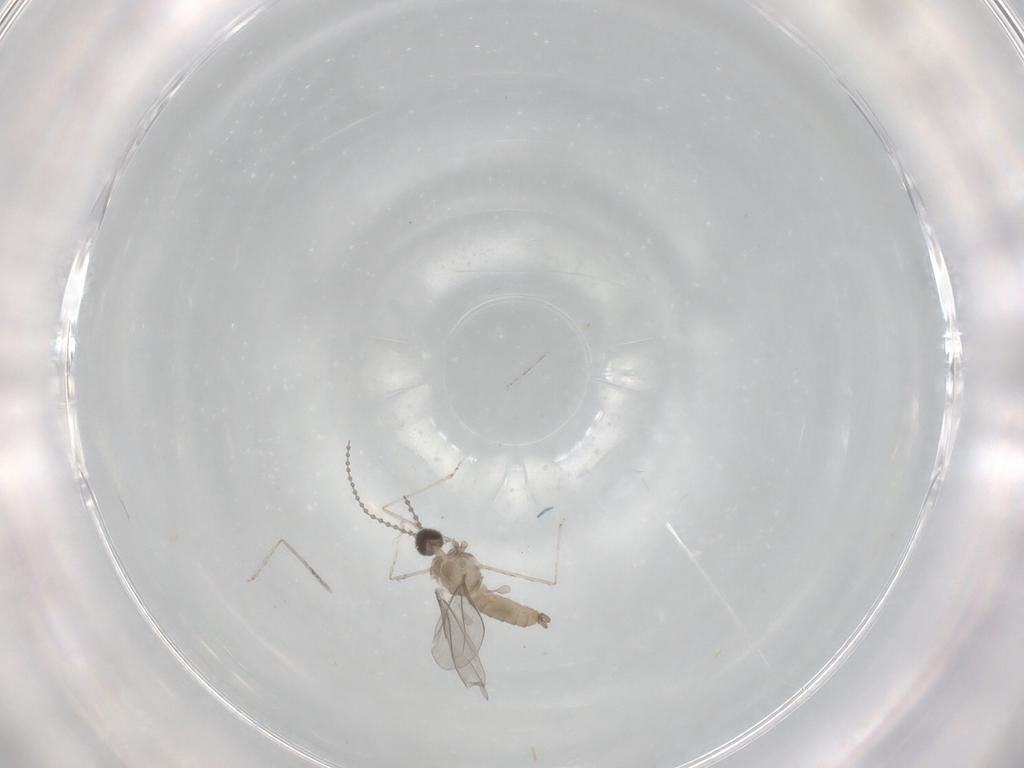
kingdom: Animalia
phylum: Arthropoda
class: Insecta
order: Diptera
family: Cecidomyiidae
